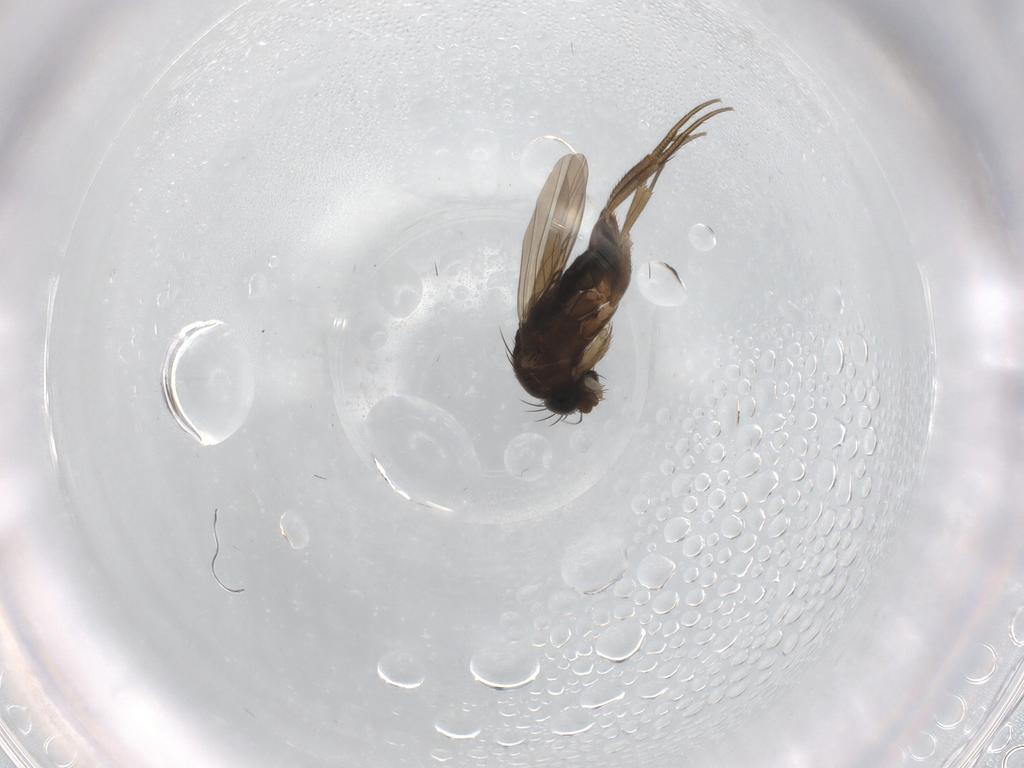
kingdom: Animalia
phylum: Arthropoda
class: Insecta
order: Diptera
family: Phoridae
